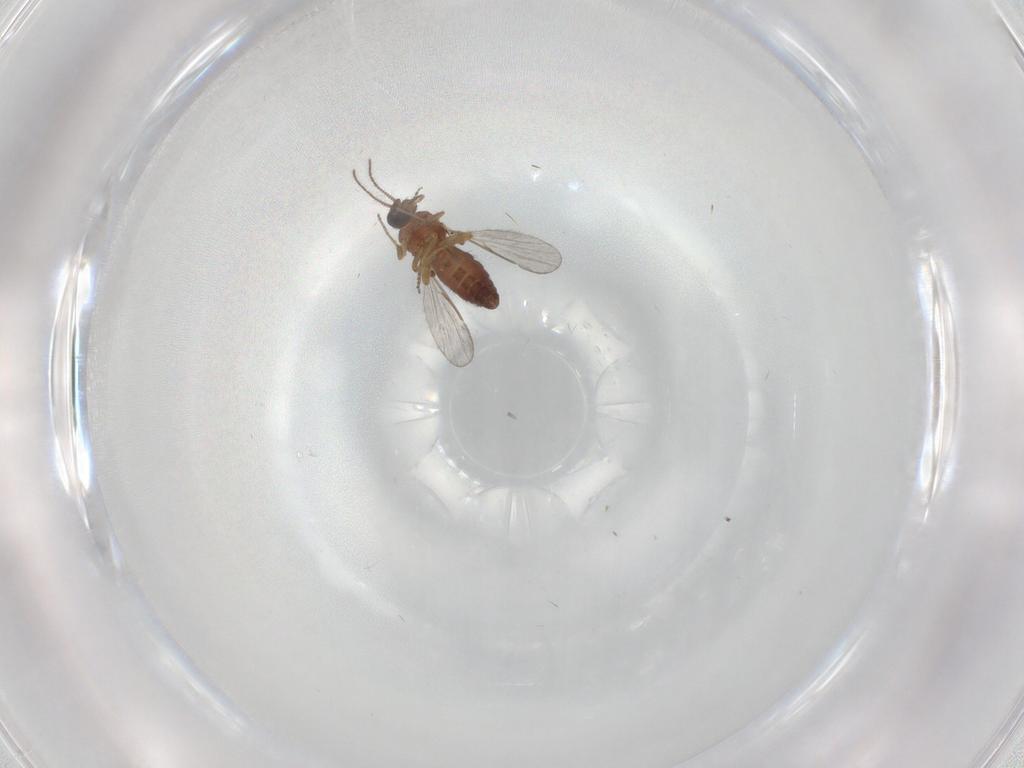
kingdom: Animalia
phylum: Arthropoda
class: Insecta
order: Diptera
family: Ceratopogonidae
